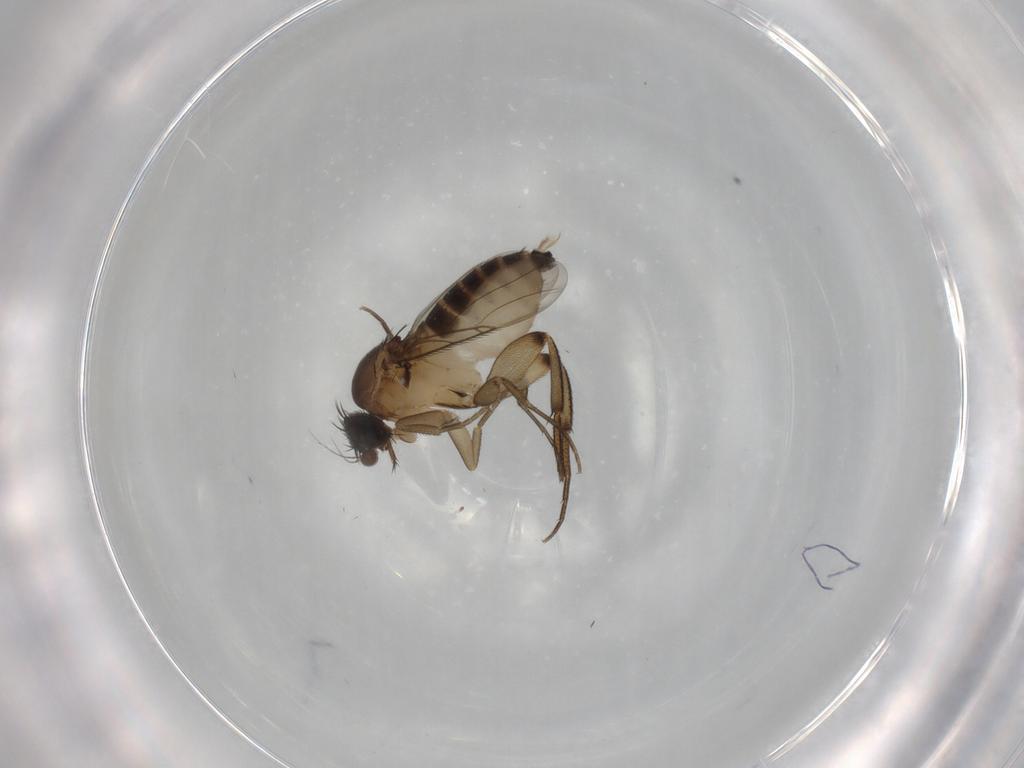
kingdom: Animalia
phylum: Arthropoda
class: Insecta
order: Diptera
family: Phoridae
